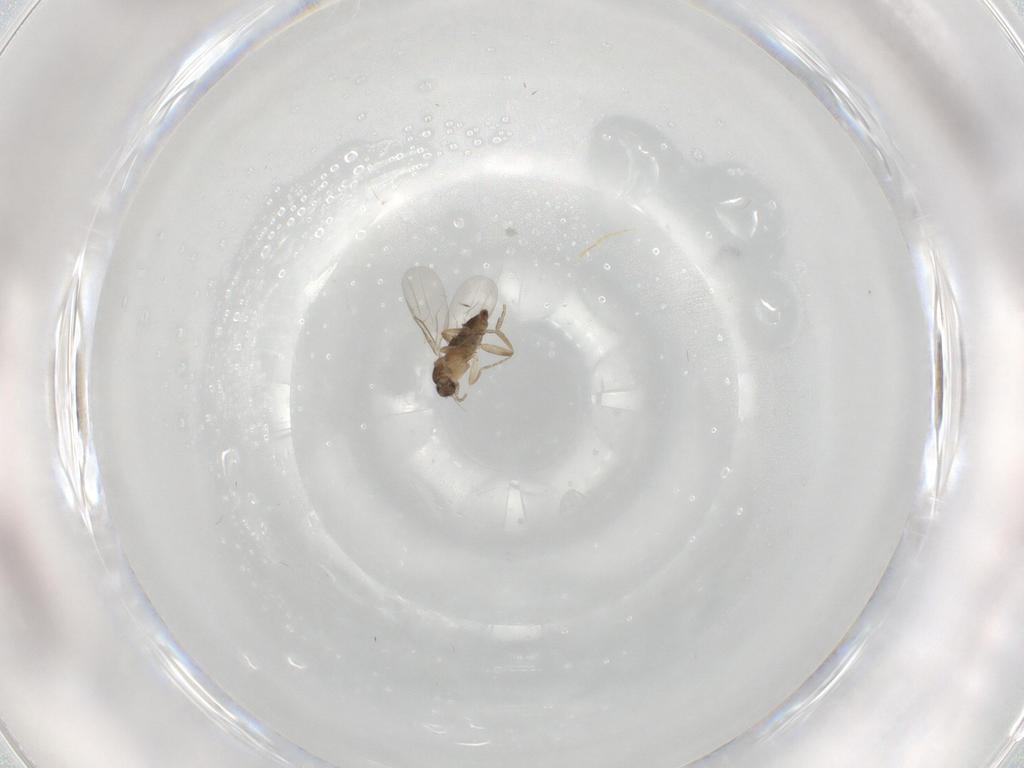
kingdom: Animalia
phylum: Arthropoda
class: Insecta
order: Diptera
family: Phoridae
